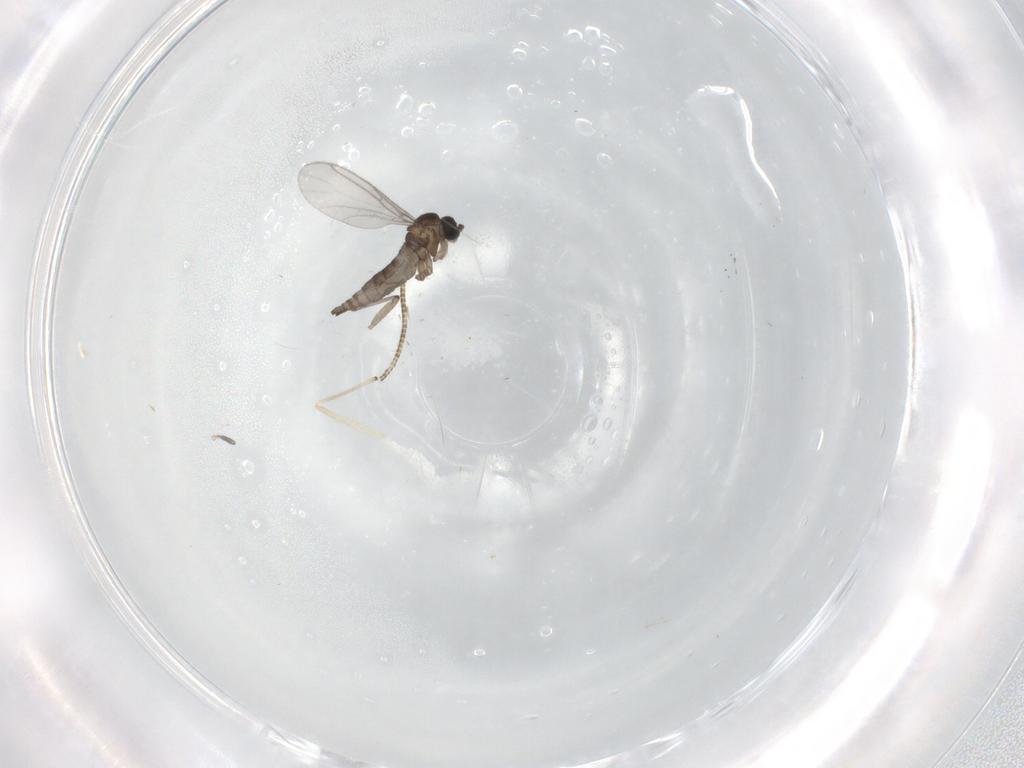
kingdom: Animalia
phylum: Arthropoda
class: Insecta
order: Diptera
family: Chironomidae
